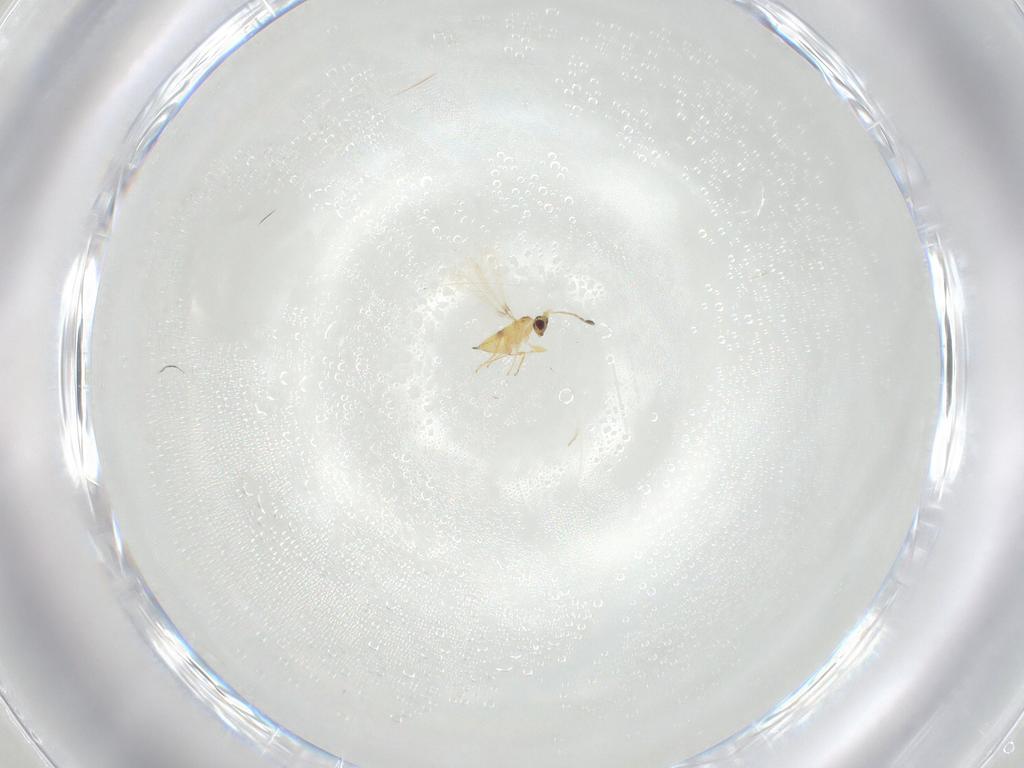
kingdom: Animalia
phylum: Arthropoda
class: Insecta
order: Hymenoptera
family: Mymaridae
